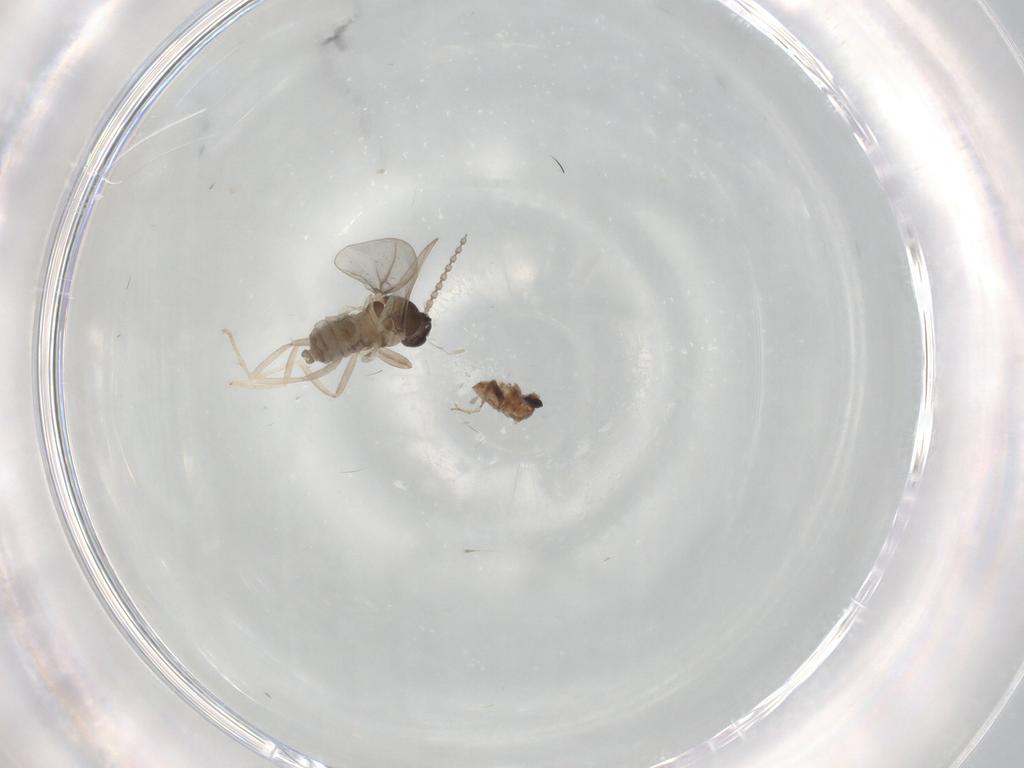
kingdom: Animalia
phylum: Arthropoda
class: Insecta
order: Diptera
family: Cecidomyiidae
